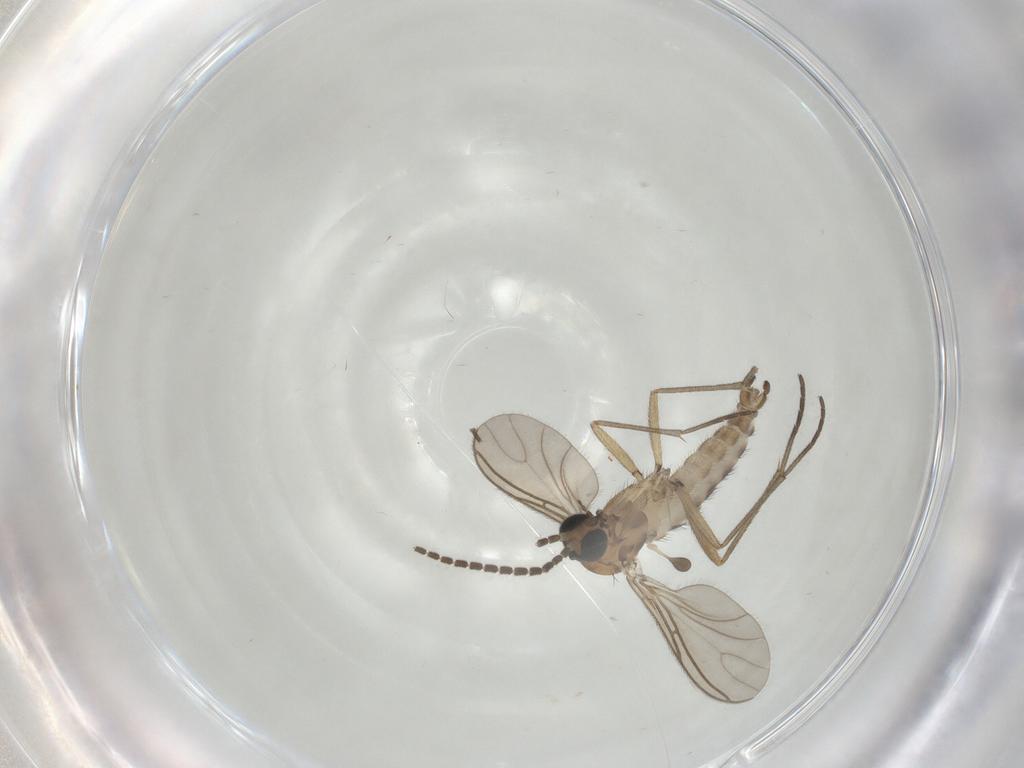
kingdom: Animalia
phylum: Arthropoda
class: Insecta
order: Diptera
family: Sciaridae
